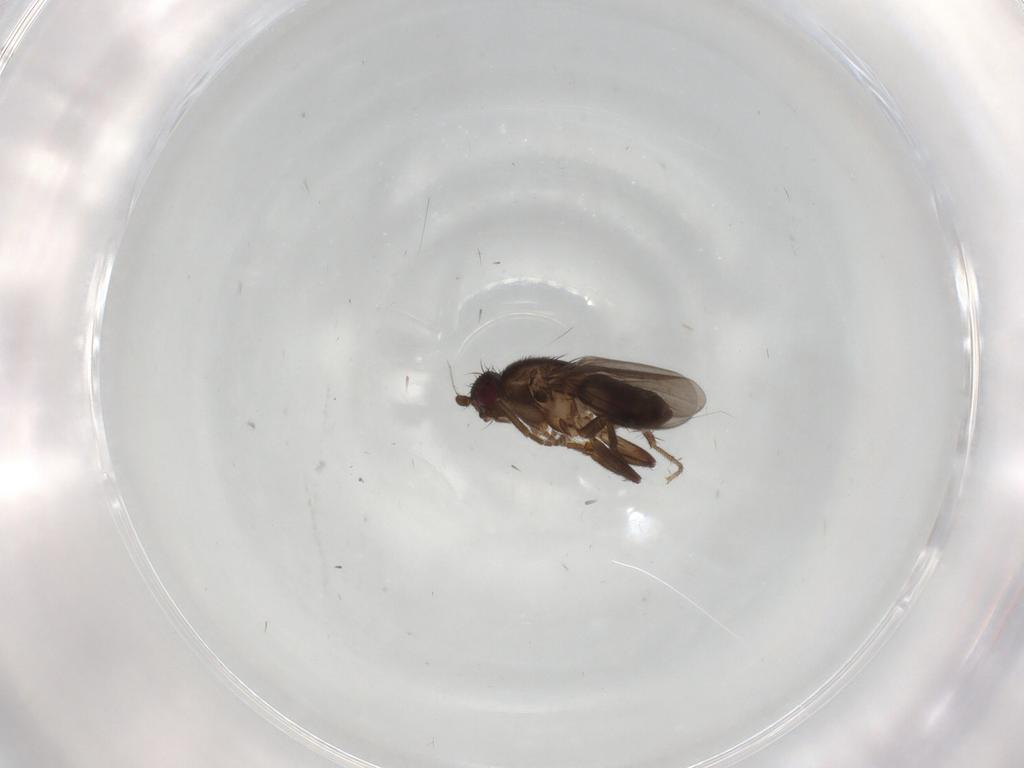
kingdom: Animalia
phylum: Arthropoda
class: Insecta
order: Diptera
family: Sphaeroceridae
